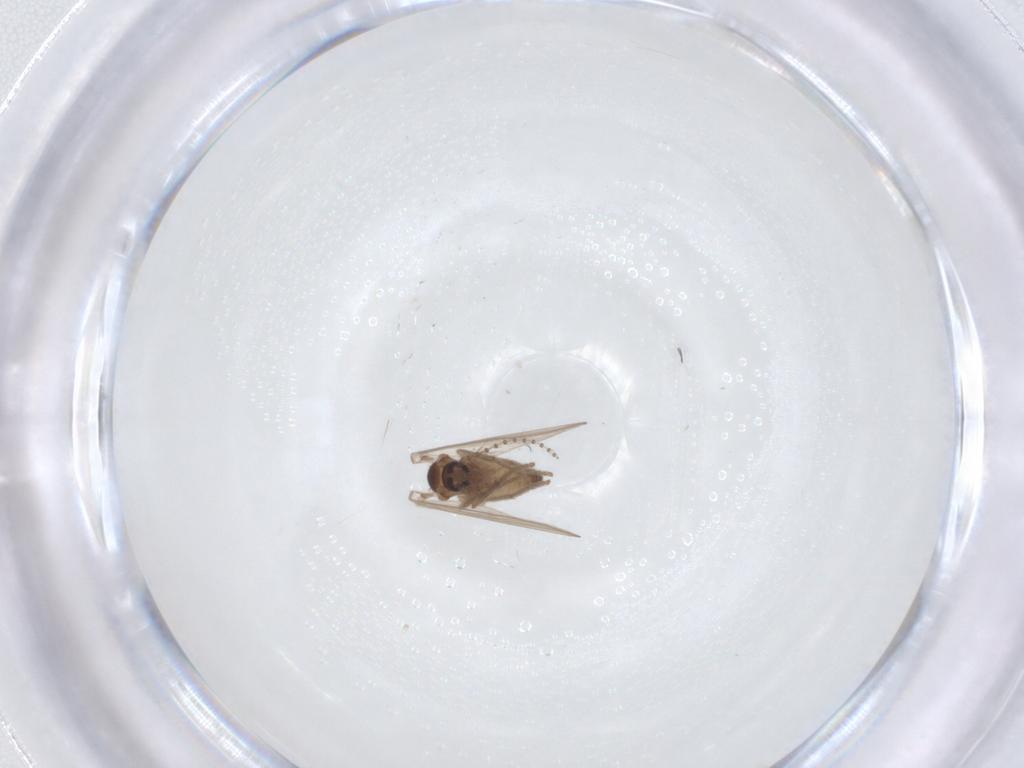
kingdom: Animalia
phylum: Arthropoda
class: Insecta
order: Diptera
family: Psychodidae
